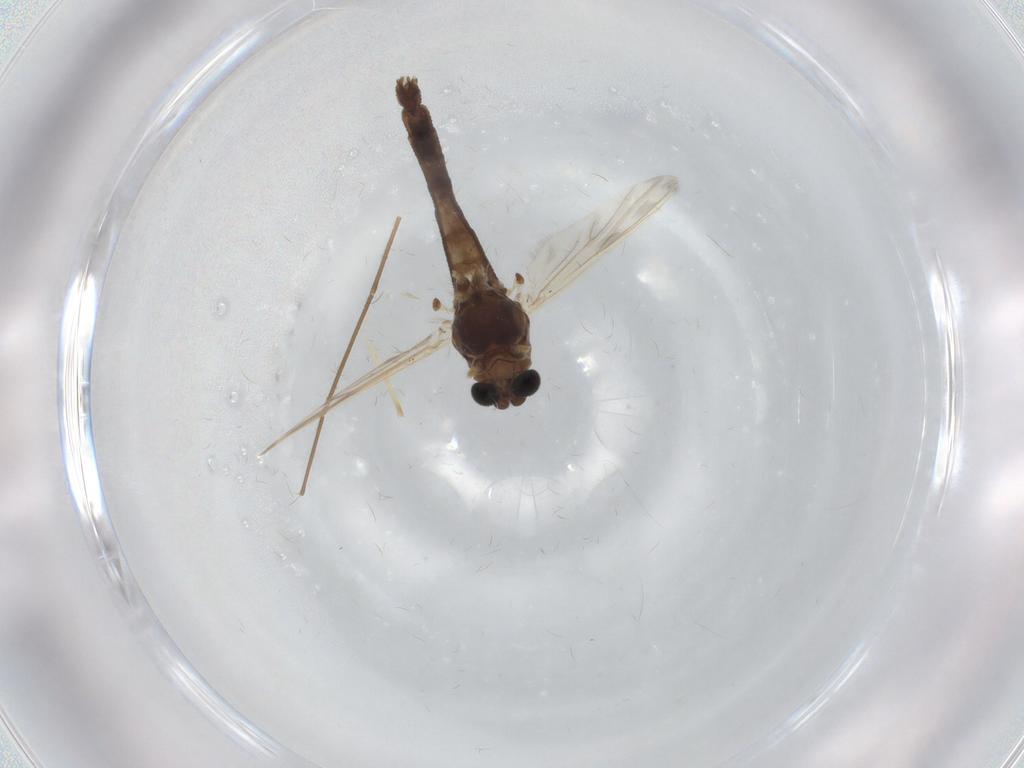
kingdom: Animalia
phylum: Arthropoda
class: Insecta
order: Diptera
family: Chironomidae
